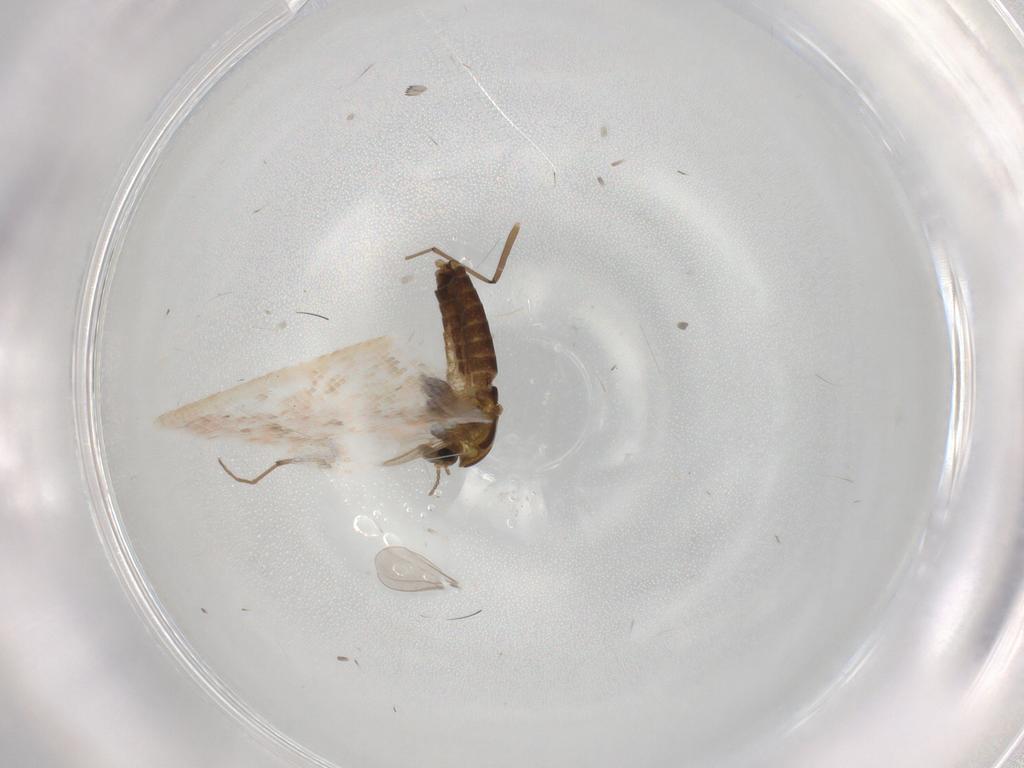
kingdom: Animalia
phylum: Arthropoda
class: Insecta
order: Diptera
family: Chironomidae
